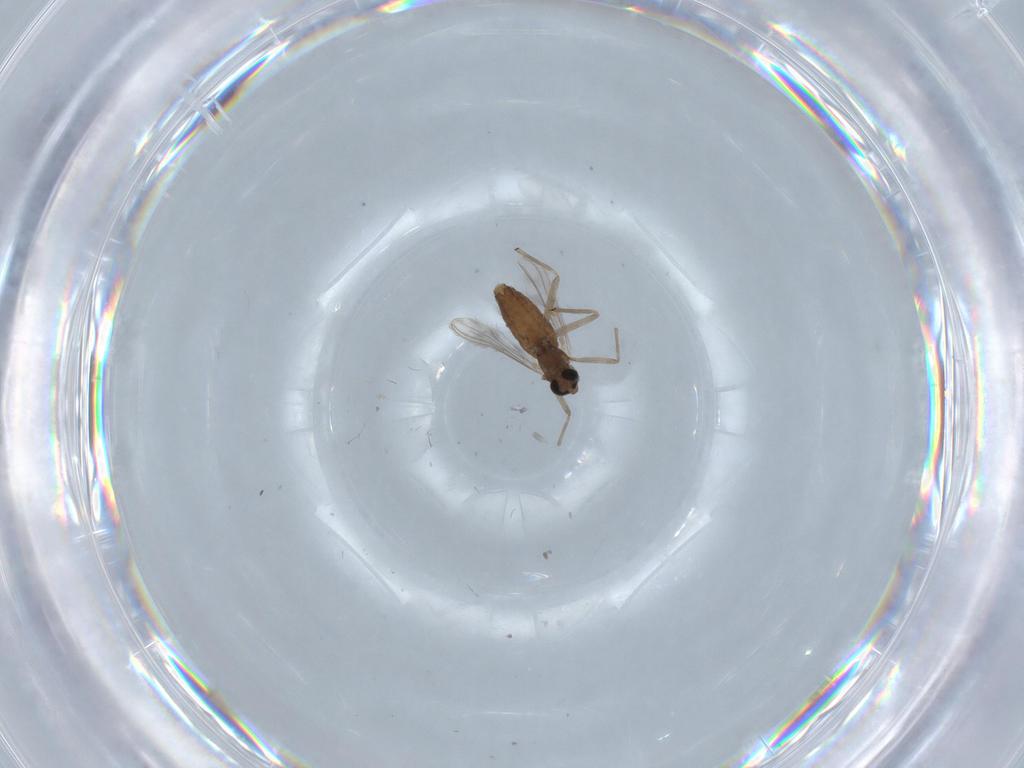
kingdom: Animalia
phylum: Arthropoda
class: Insecta
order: Diptera
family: Chironomidae
